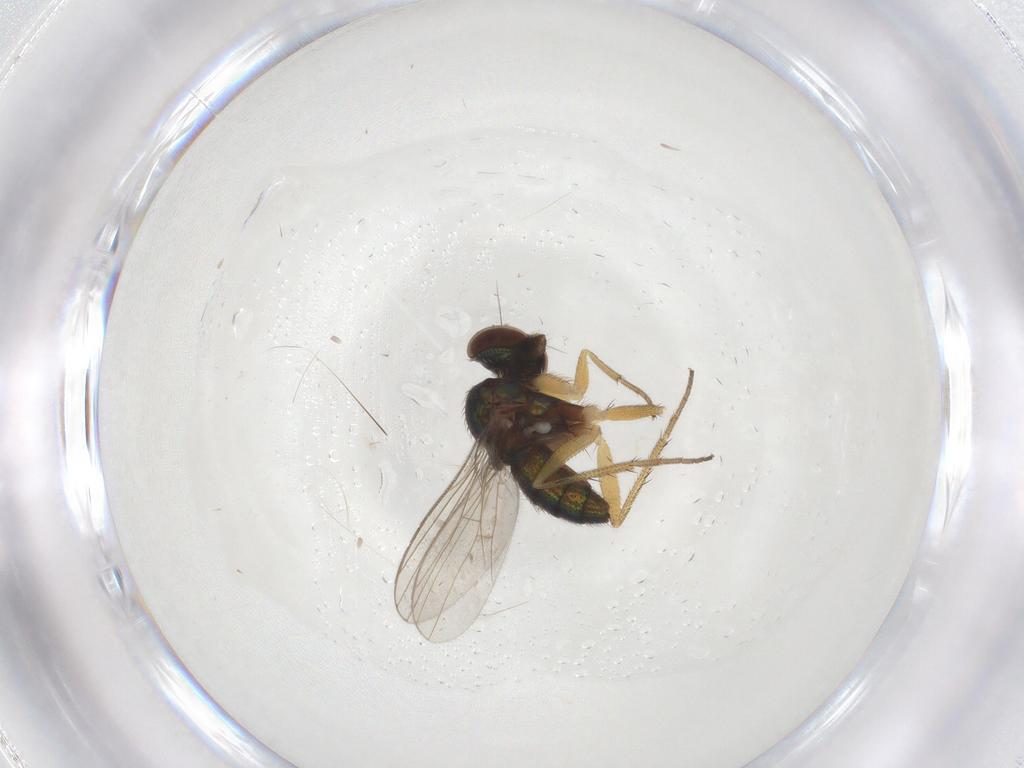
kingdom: Animalia
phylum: Arthropoda
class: Insecta
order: Diptera
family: Dolichopodidae
